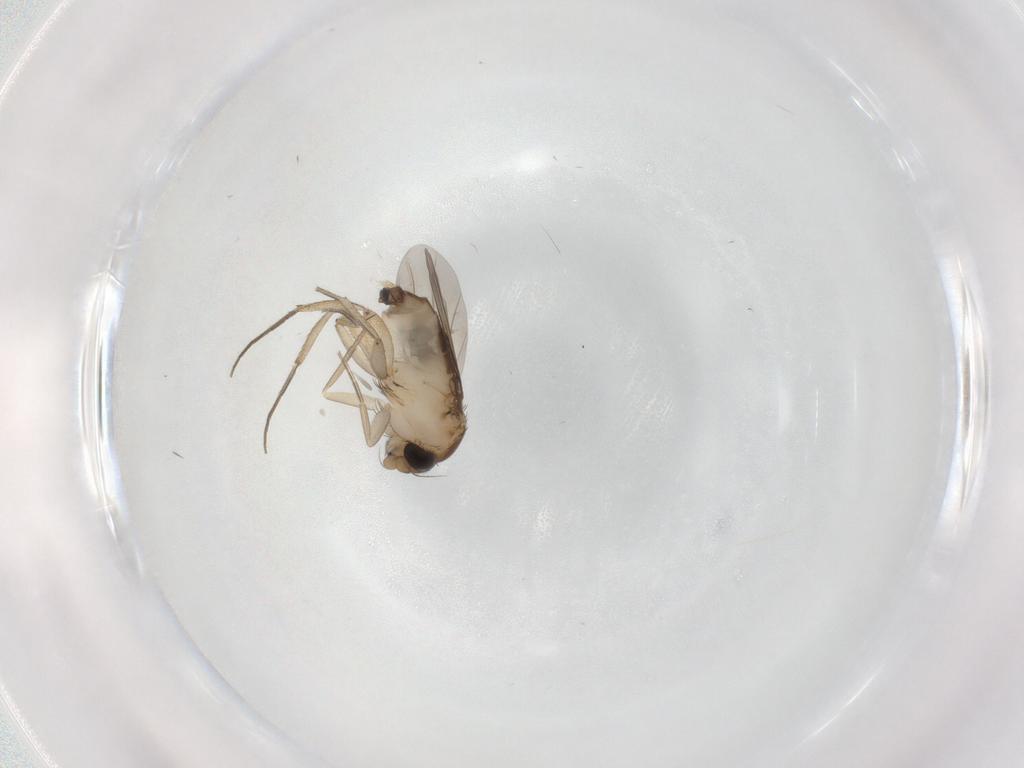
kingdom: Animalia
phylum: Arthropoda
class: Insecta
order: Diptera
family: Phoridae
